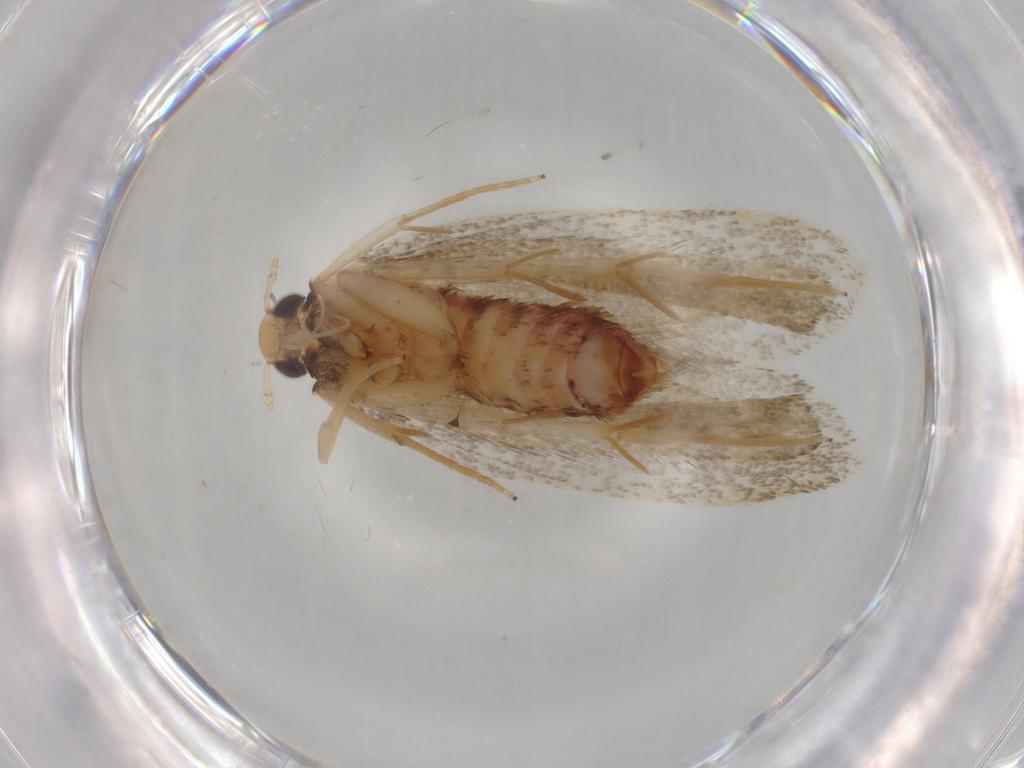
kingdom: Animalia
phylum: Arthropoda
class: Insecta
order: Lepidoptera
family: Lecithoceridae
